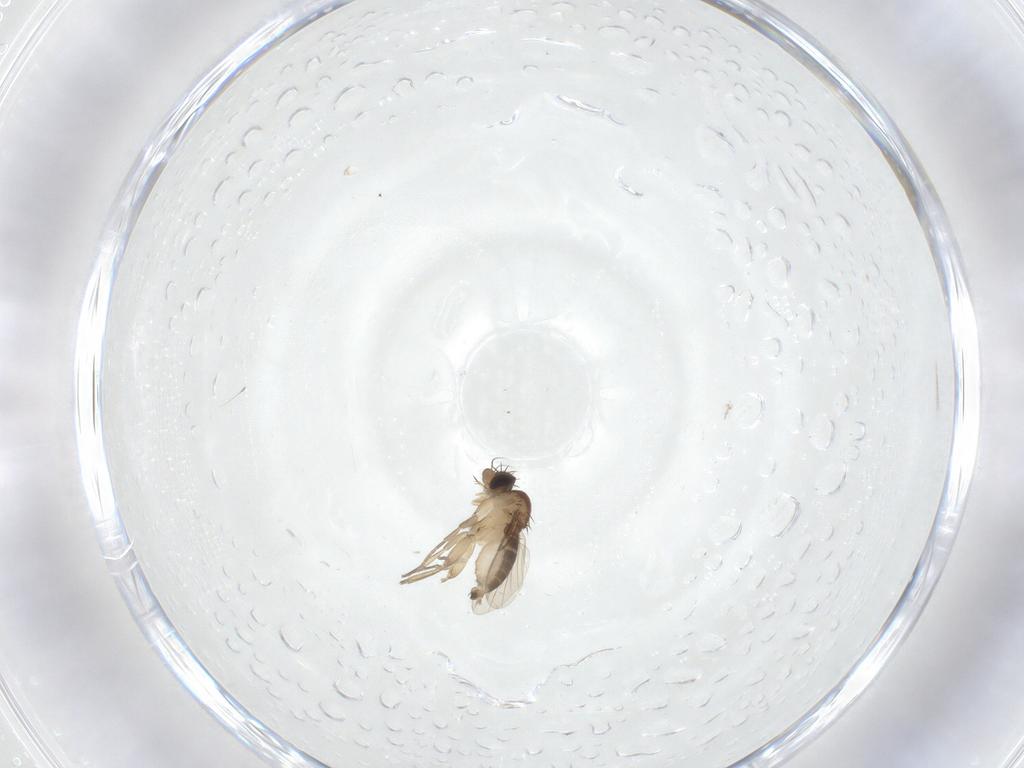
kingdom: Animalia
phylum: Arthropoda
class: Insecta
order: Diptera
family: Phoridae
